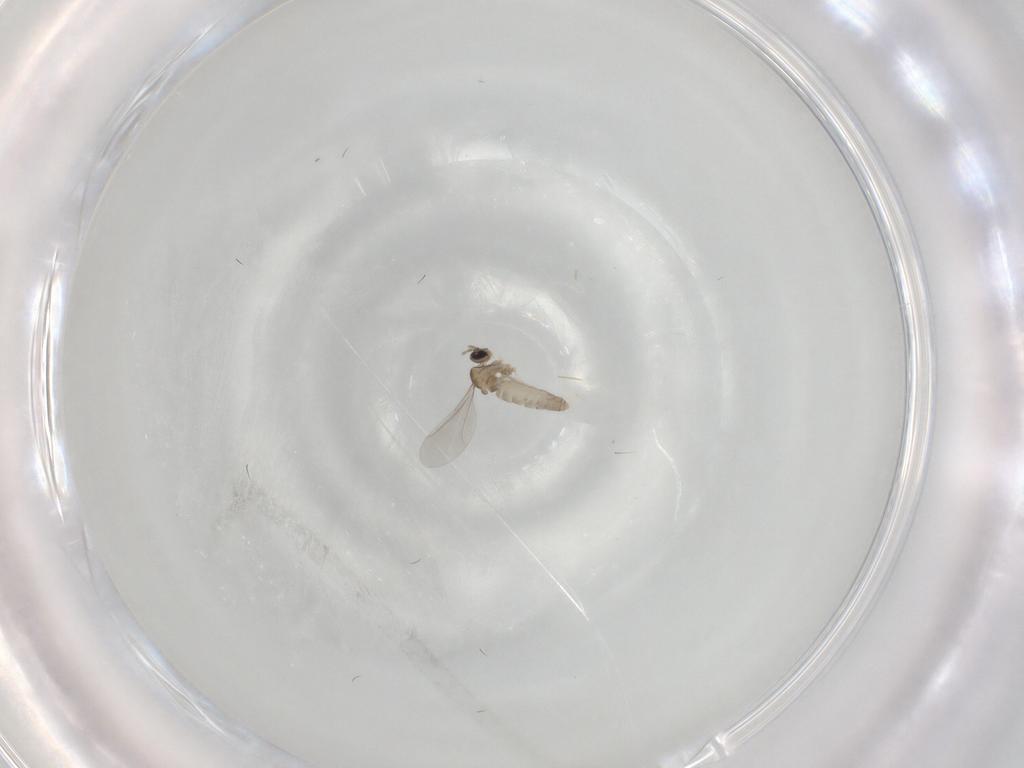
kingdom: Animalia
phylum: Arthropoda
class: Insecta
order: Diptera
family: Cecidomyiidae
